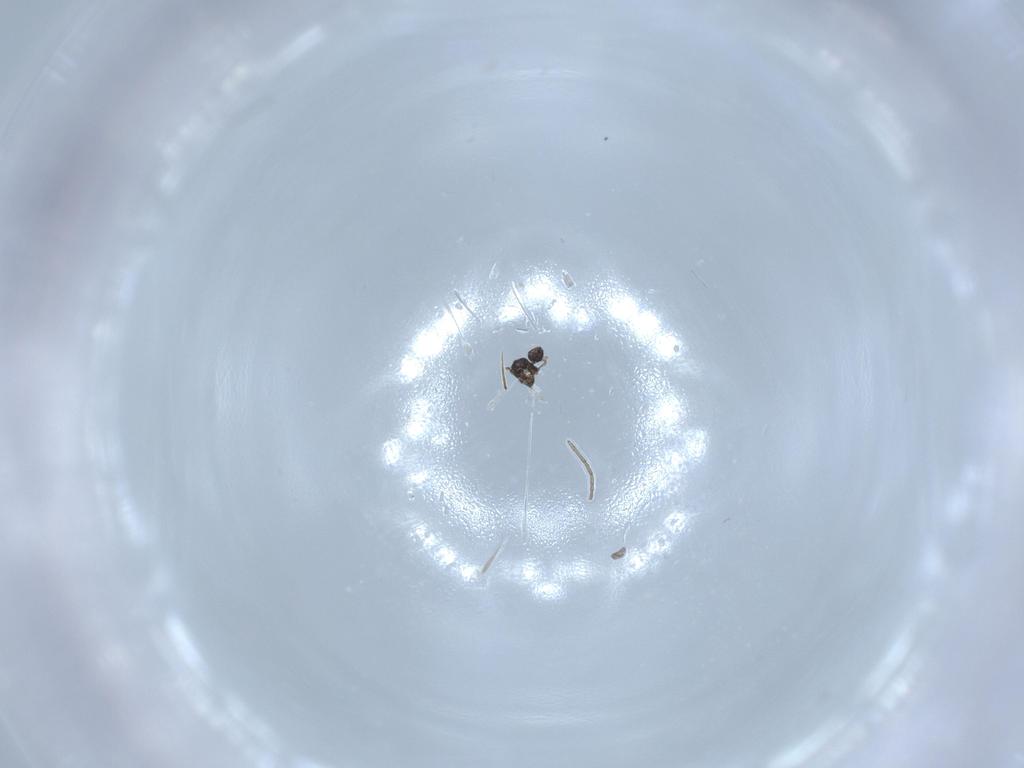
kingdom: Animalia
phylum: Arthropoda
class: Insecta
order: Hymenoptera
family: Mymaridae
